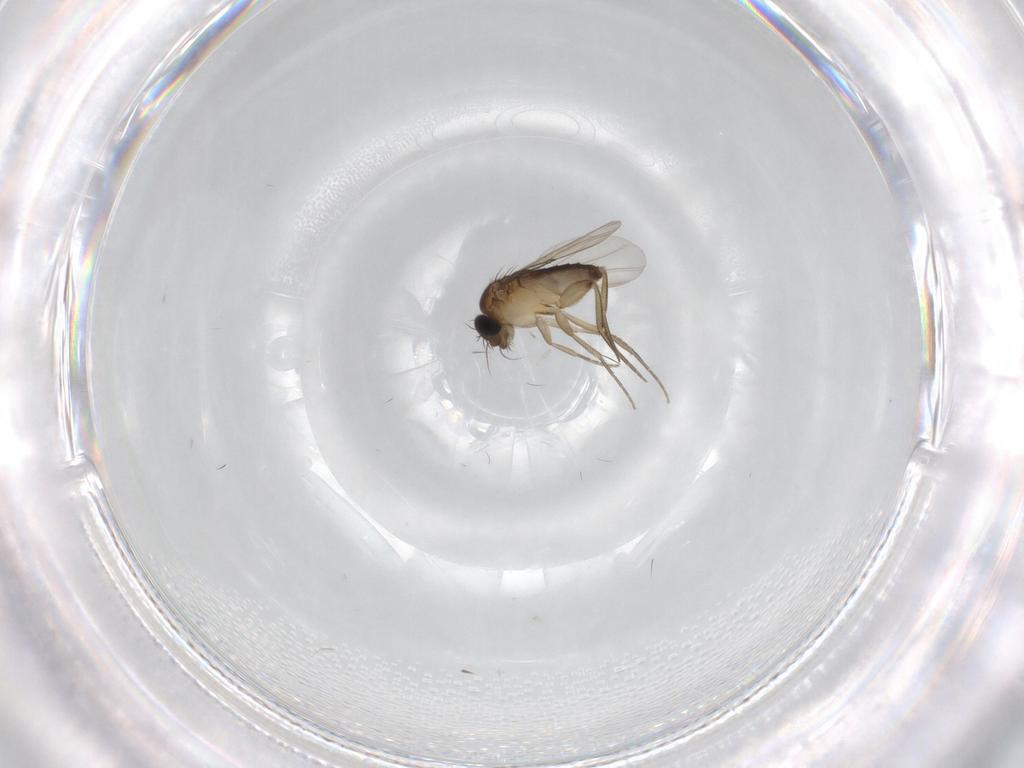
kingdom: Animalia
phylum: Arthropoda
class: Insecta
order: Diptera
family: Phoridae
